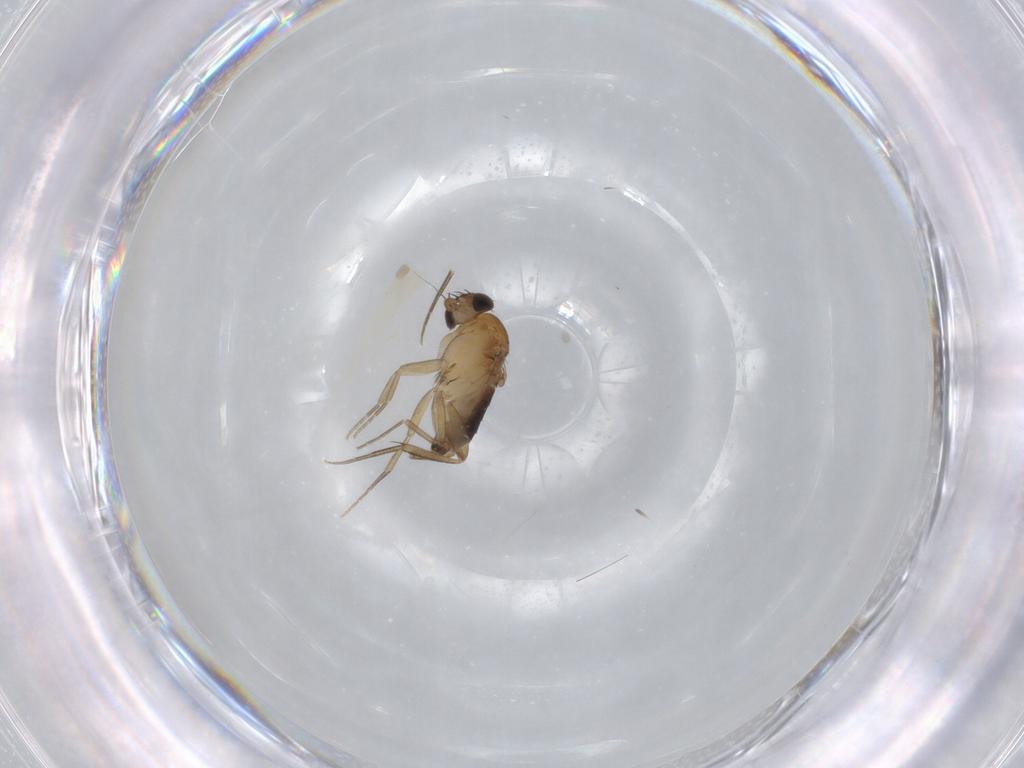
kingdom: Animalia
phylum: Arthropoda
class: Insecta
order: Diptera
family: Phoridae
